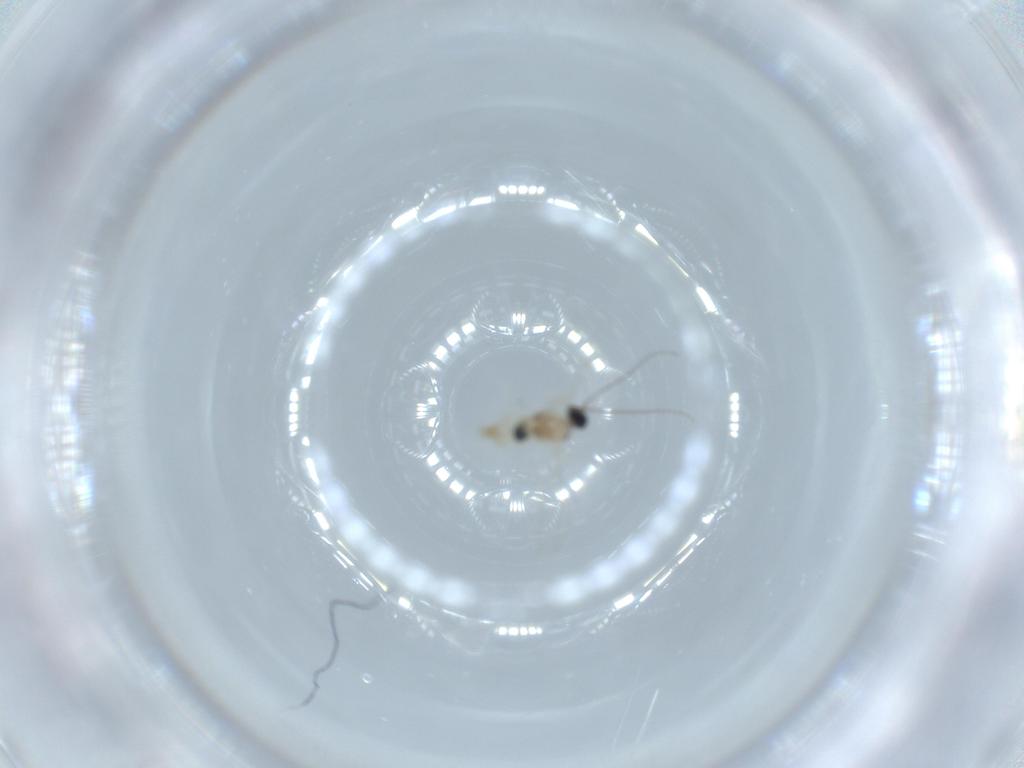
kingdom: Animalia
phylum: Arthropoda
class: Insecta
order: Diptera
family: Cecidomyiidae
